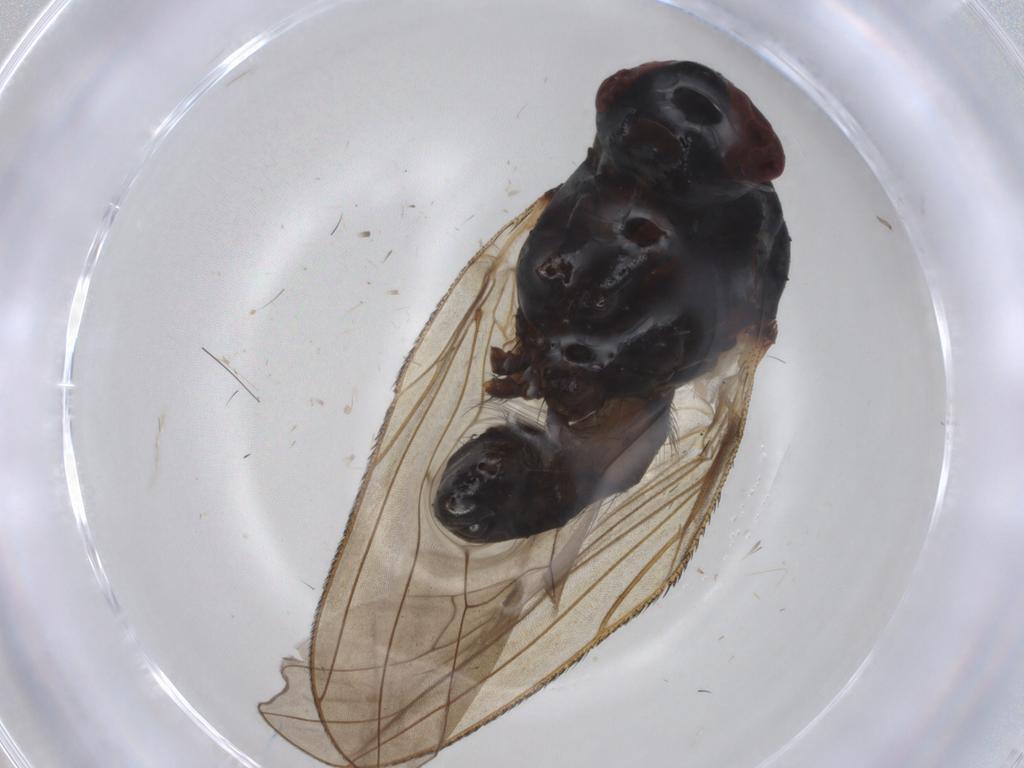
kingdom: Animalia
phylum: Arthropoda
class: Insecta
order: Diptera
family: Anthomyiidae
